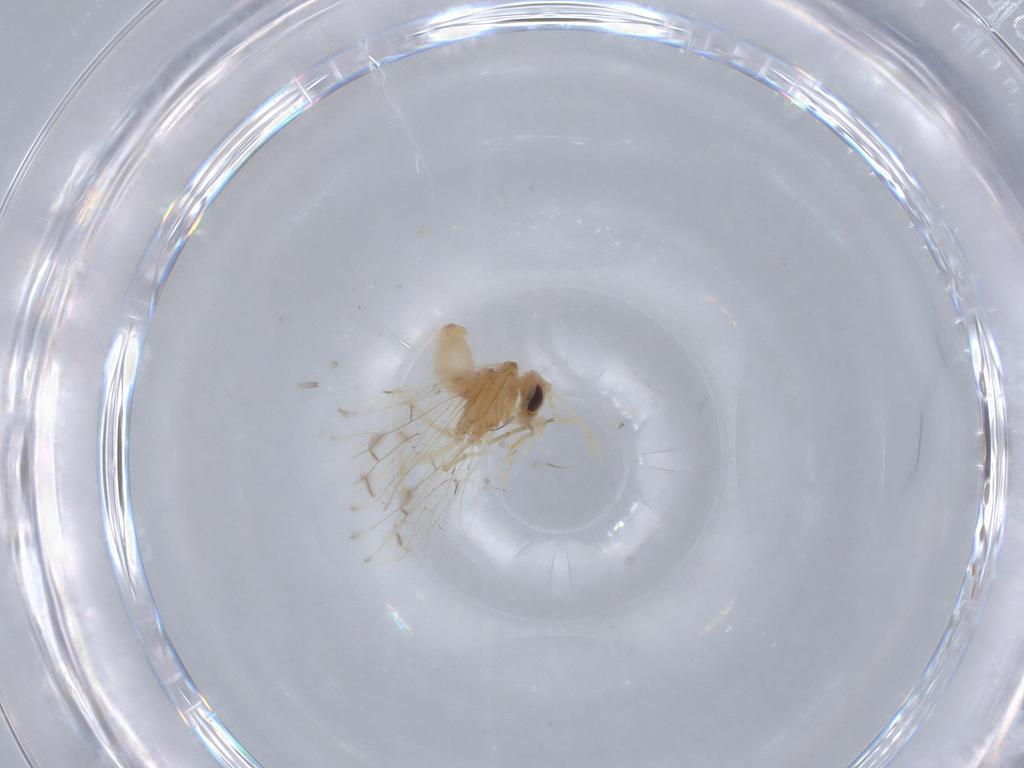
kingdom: Animalia
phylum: Arthropoda
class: Insecta
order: Neuroptera
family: Coniopterygidae
